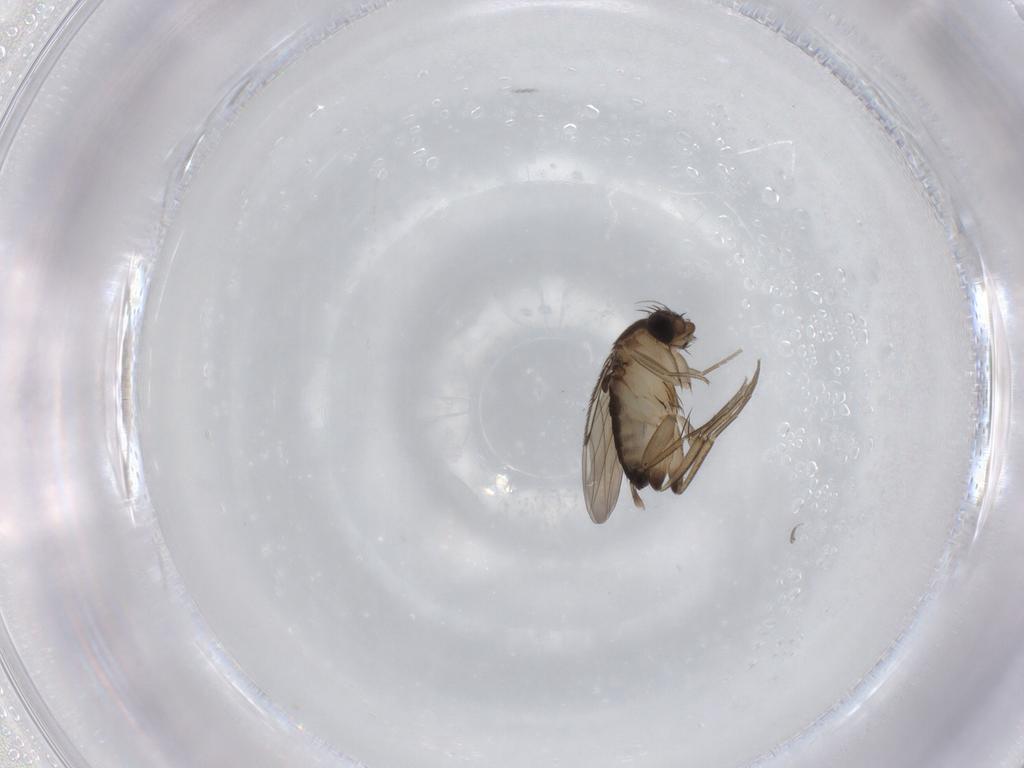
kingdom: Animalia
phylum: Arthropoda
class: Insecta
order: Diptera
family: Phoridae
